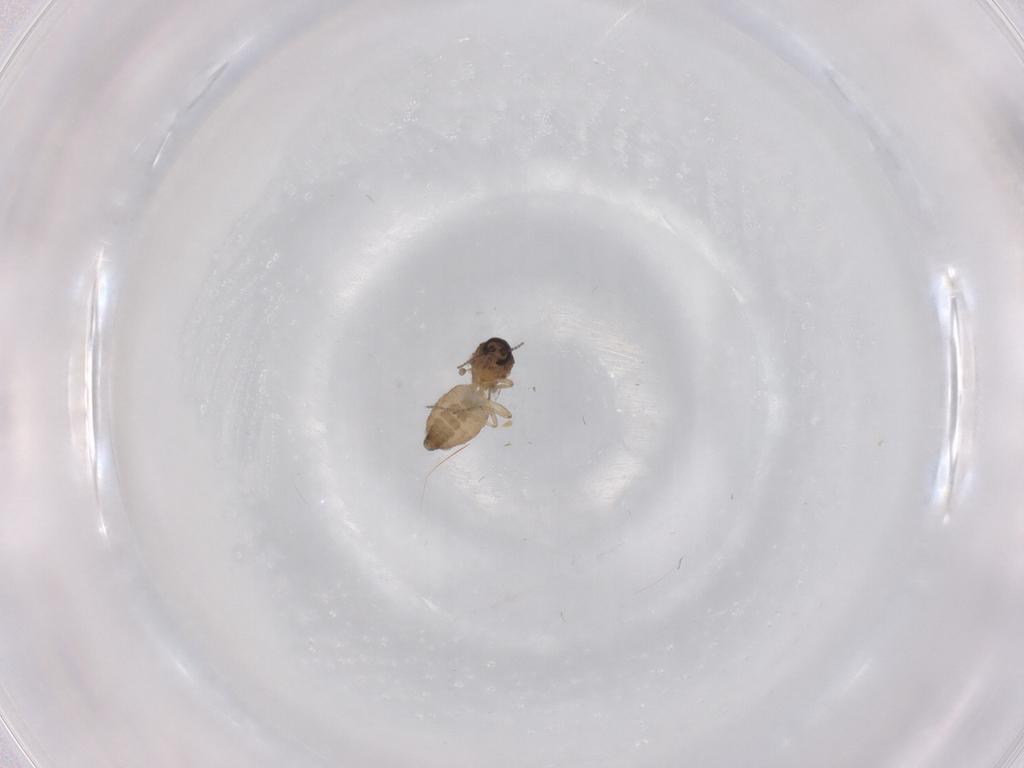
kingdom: Animalia
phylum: Arthropoda
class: Insecta
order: Diptera
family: Ceratopogonidae
